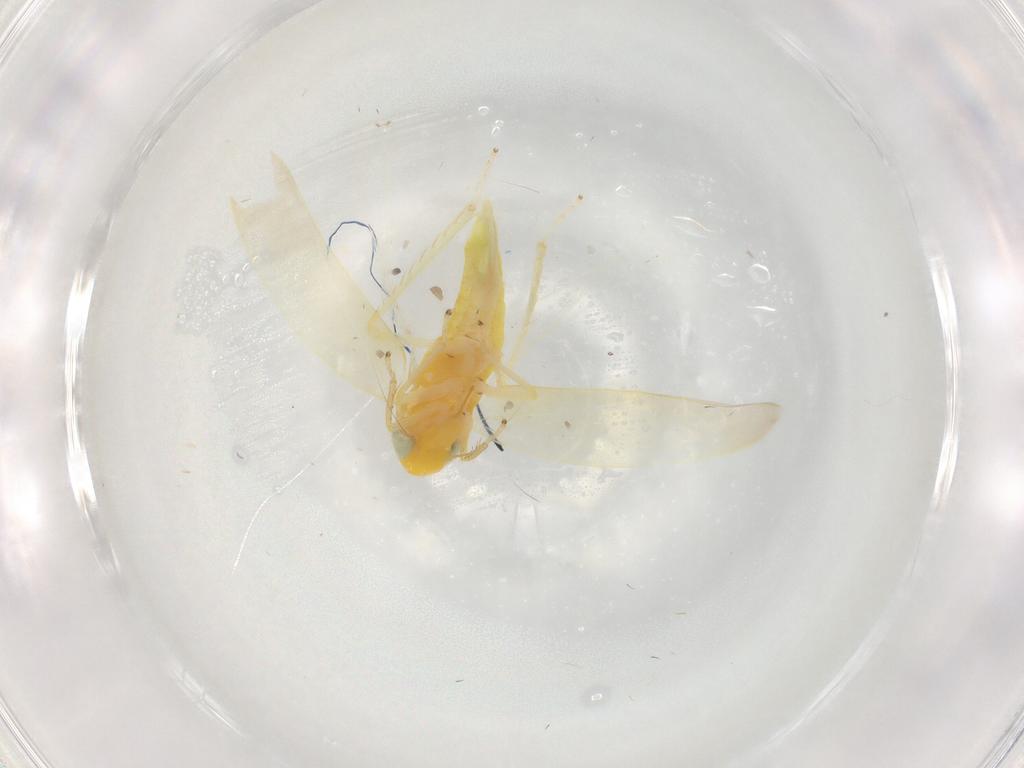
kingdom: Animalia
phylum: Arthropoda
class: Insecta
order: Hemiptera
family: Cicadellidae
